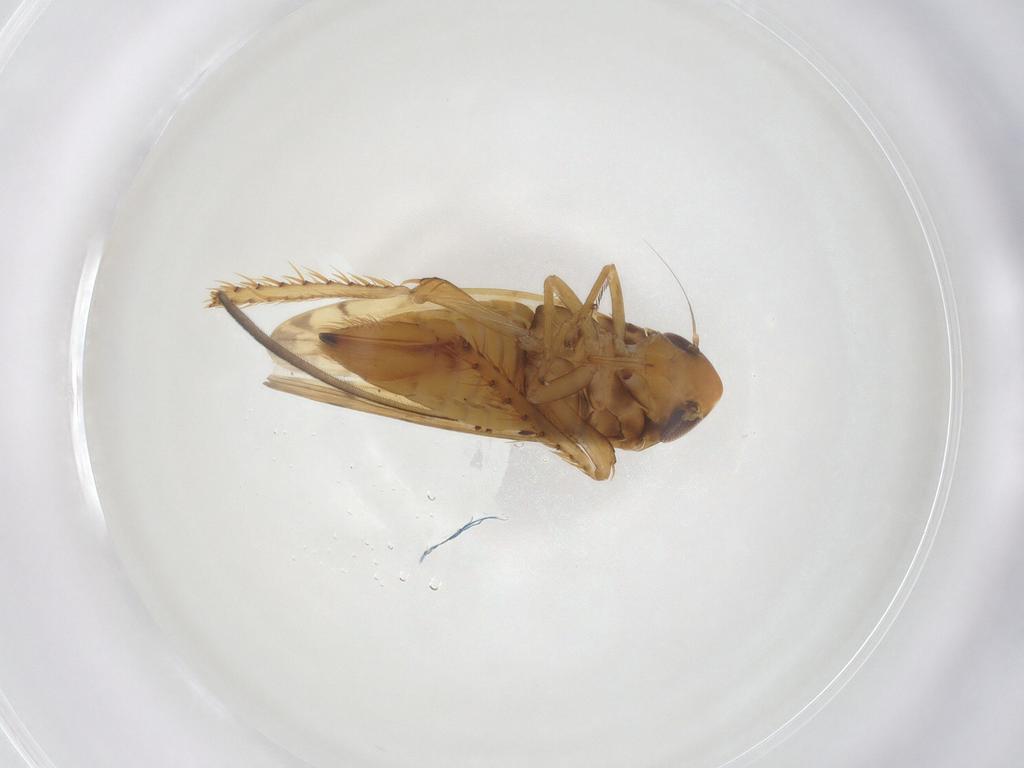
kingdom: Animalia
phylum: Arthropoda
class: Insecta
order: Hemiptera
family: Cicadellidae
